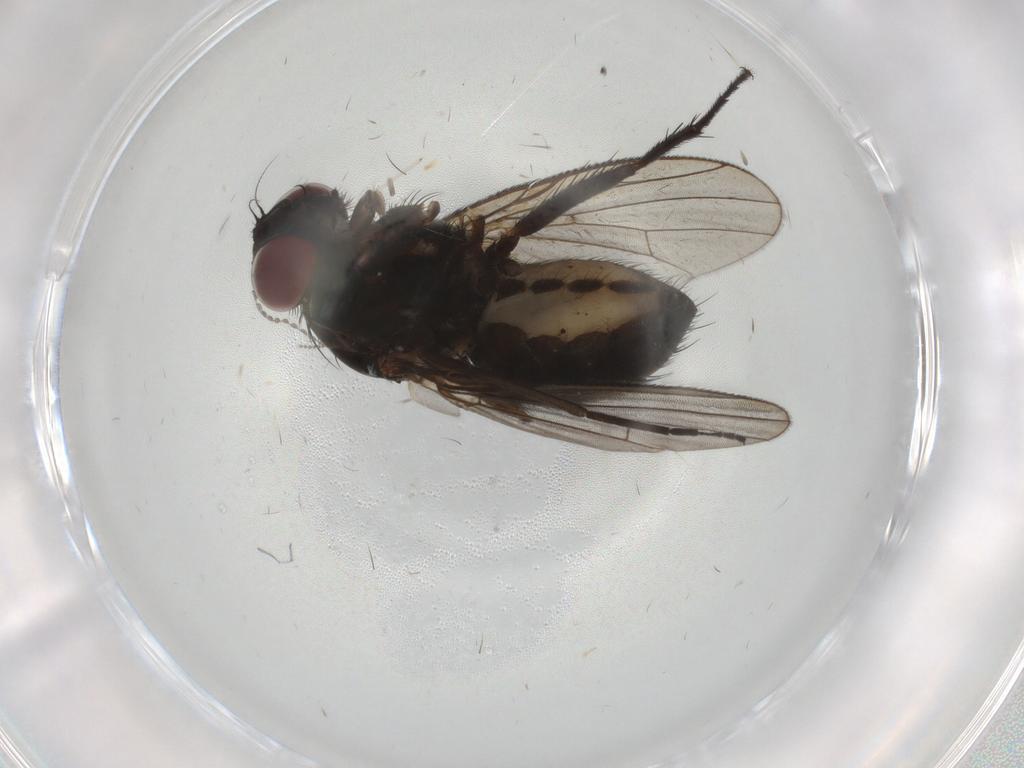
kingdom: Animalia
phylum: Arthropoda
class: Insecta
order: Diptera
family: Muscidae
